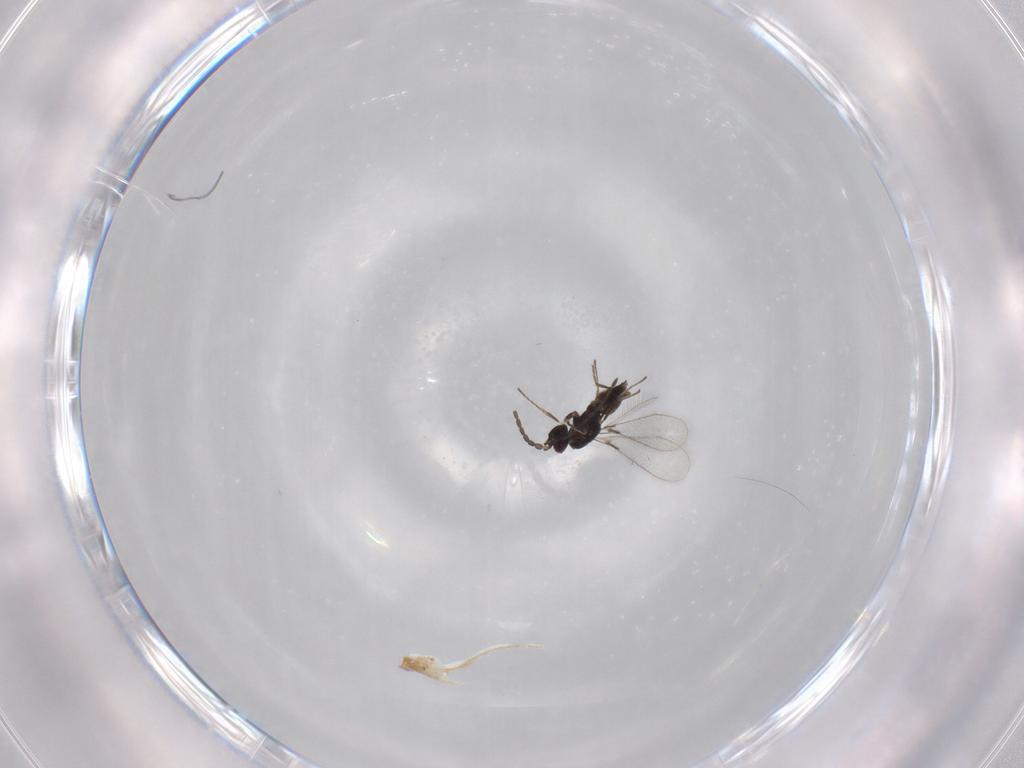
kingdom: Animalia
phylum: Arthropoda
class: Insecta
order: Hymenoptera
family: Mymaridae
